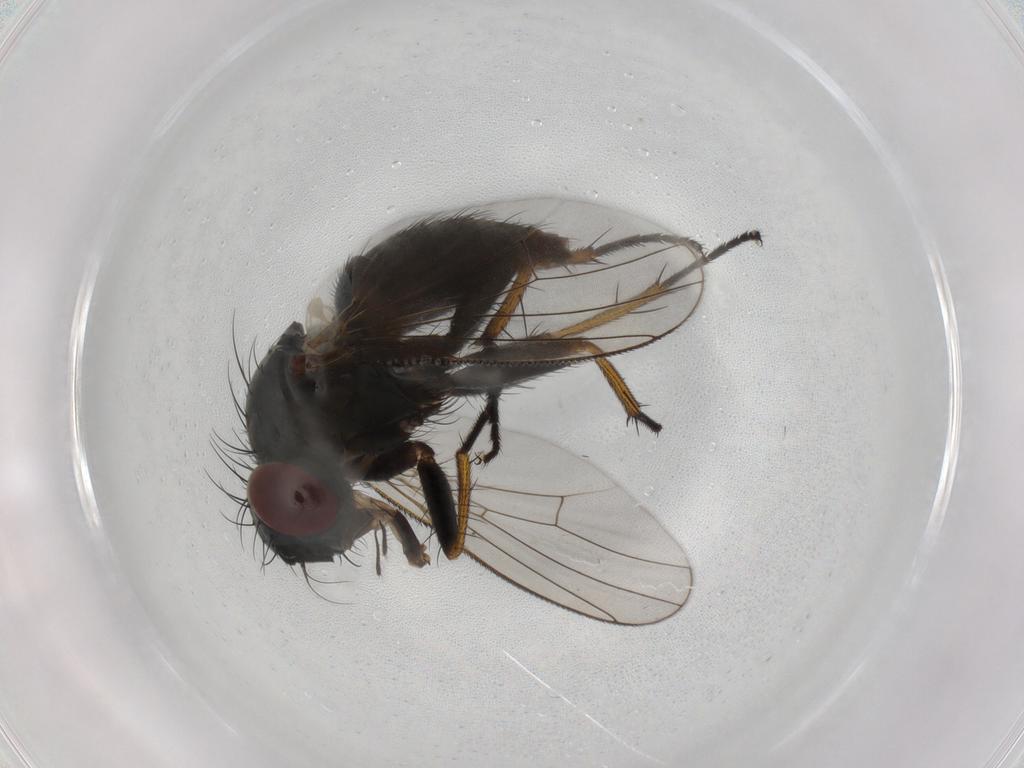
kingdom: Animalia
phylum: Arthropoda
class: Insecta
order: Diptera
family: Muscidae
